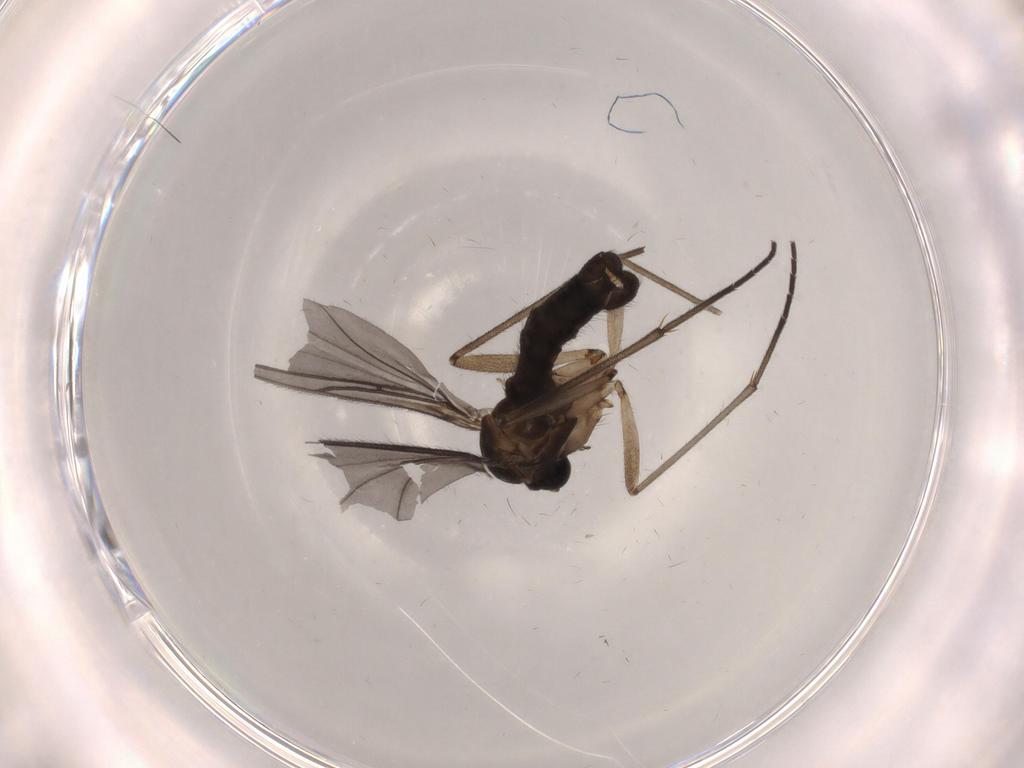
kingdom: Animalia
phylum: Arthropoda
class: Insecta
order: Diptera
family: Sciaridae
